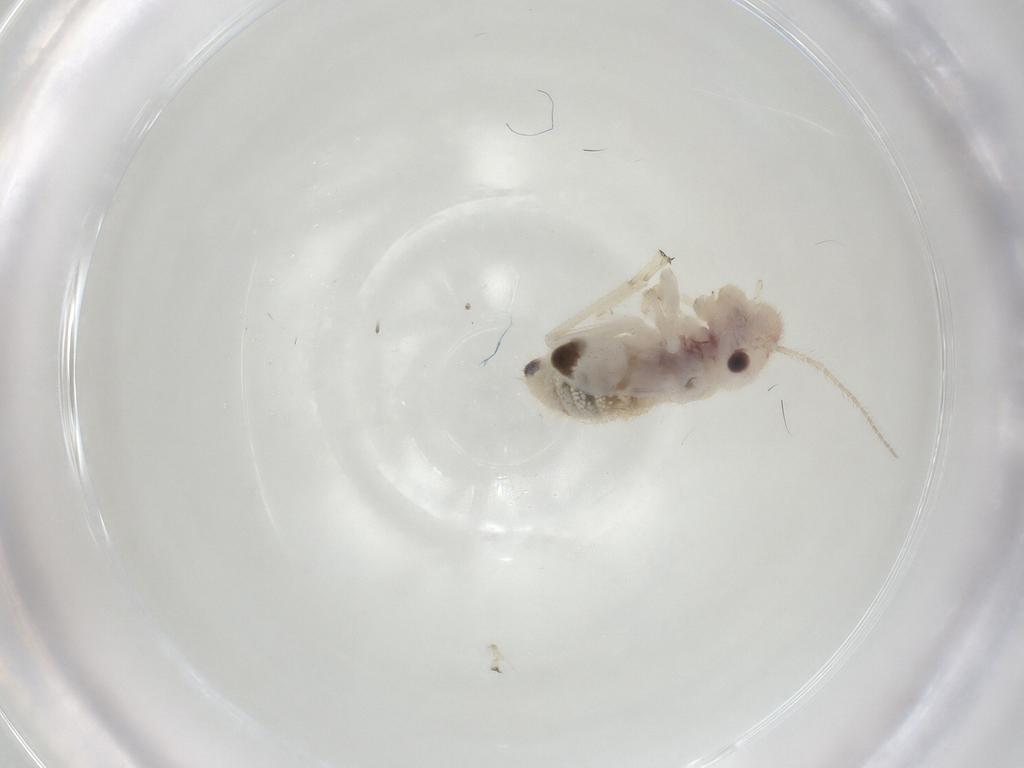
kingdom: Animalia
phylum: Arthropoda
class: Insecta
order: Psocodea
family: Amphipsocidae
